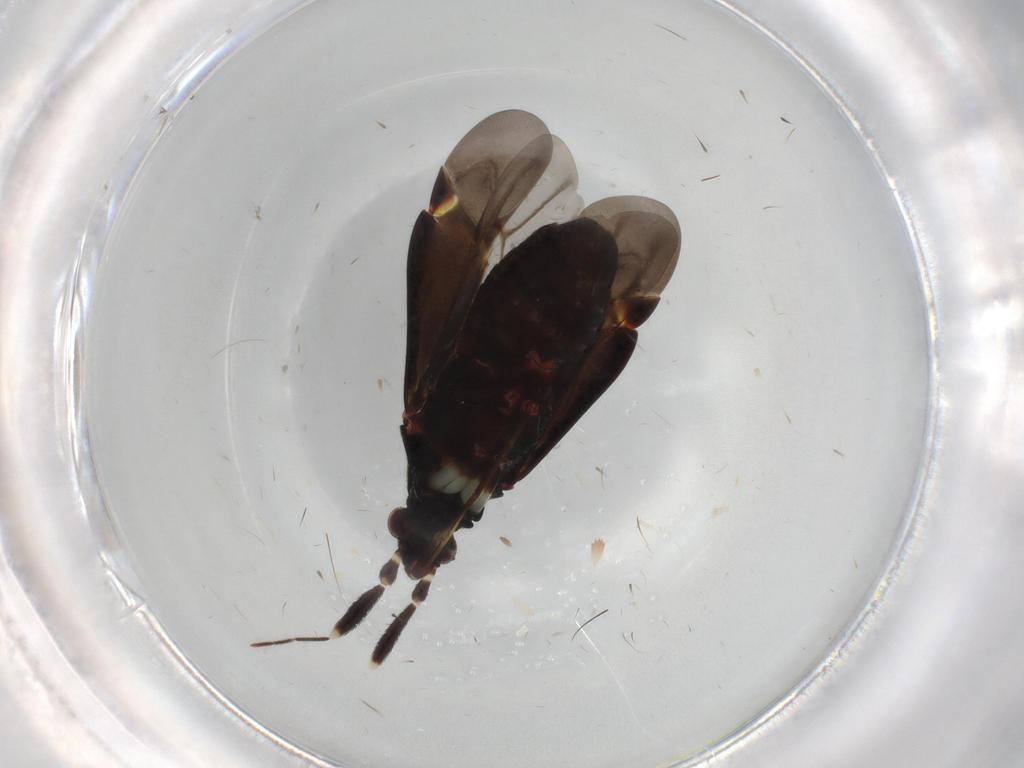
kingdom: Animalia
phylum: Arthropoda
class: Insecta
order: Hemiptera
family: Miridae
